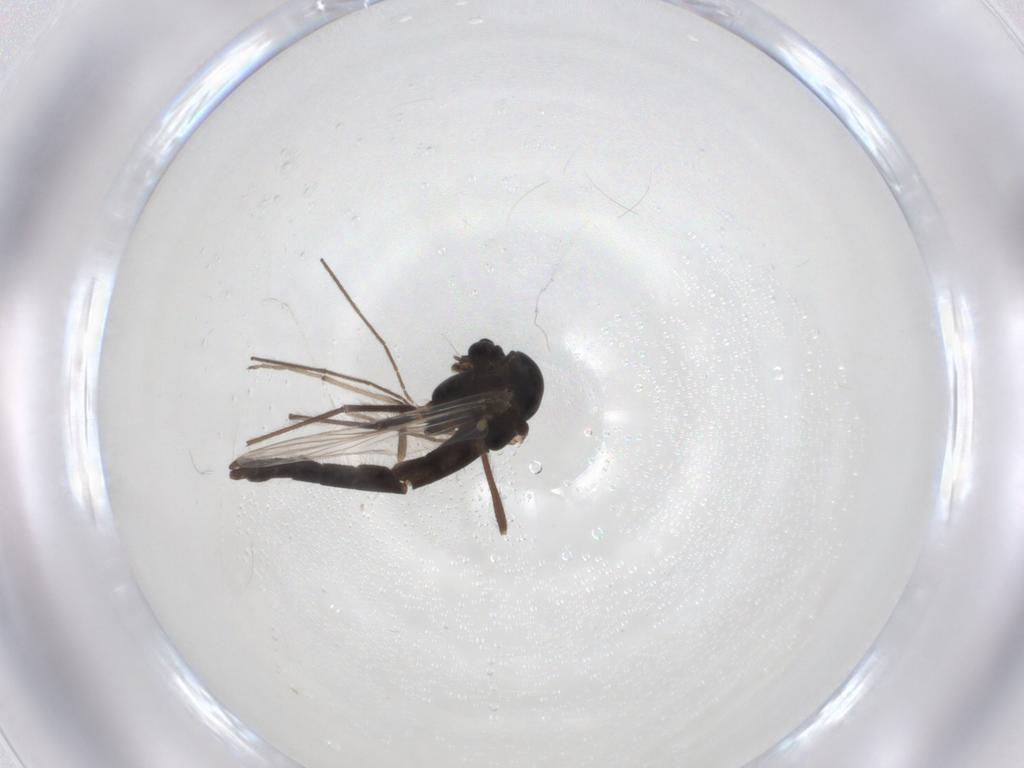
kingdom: Animalia
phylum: Arthropoda
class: Insecta
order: Diptera
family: Chironomidae
